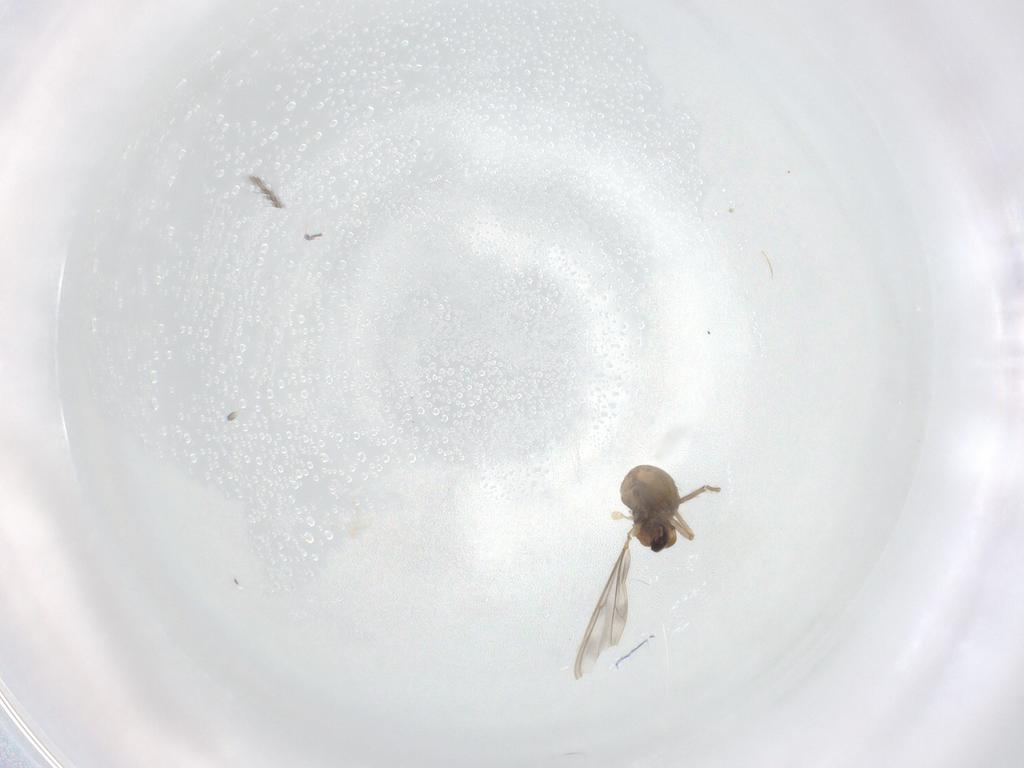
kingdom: Animalia
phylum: Arthropoda
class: Insecta
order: Diptera
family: Chironomidae
